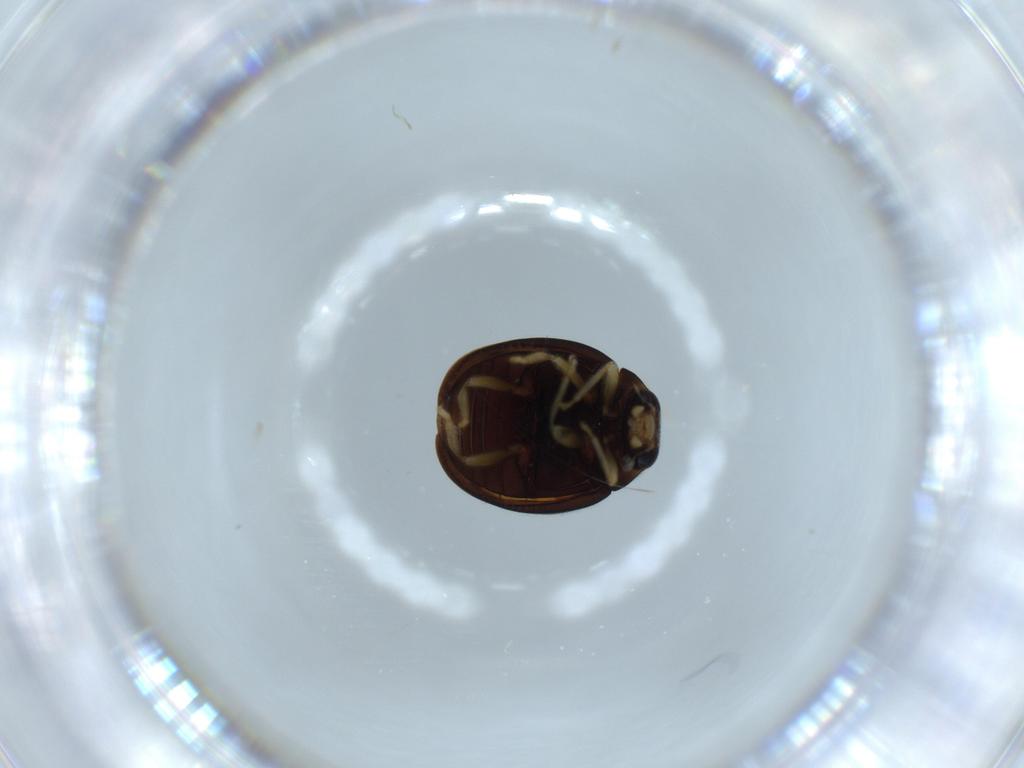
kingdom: Animalia
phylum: Arthropoda
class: Insecta
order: Coleoptera
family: Coccinellidae
